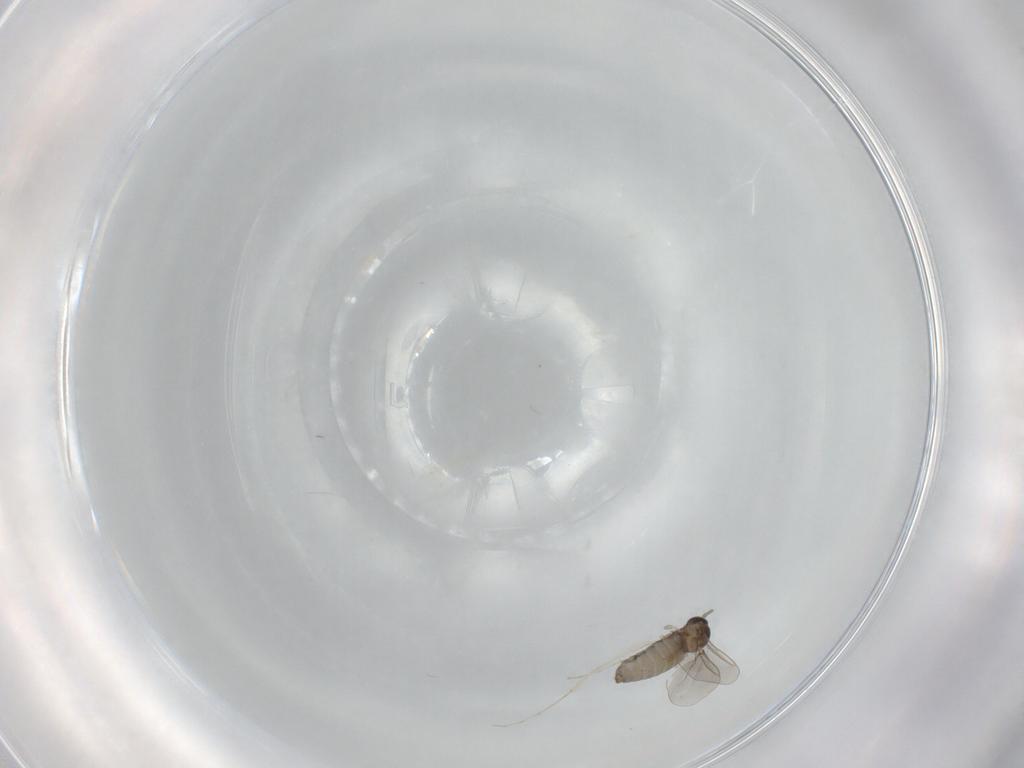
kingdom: Animalia
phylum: Arthropoda
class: Insecta
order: Diptera
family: Cecidomyiidae
